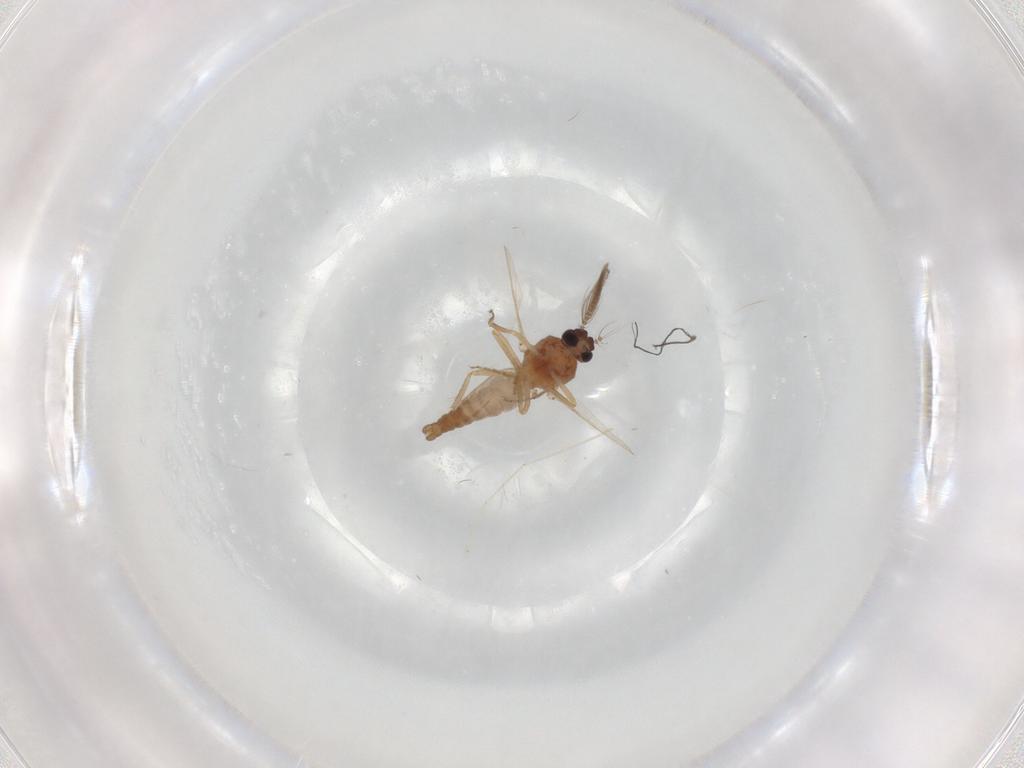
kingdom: Animalia
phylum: Arthropoda
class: Insecta
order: Diptera
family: Ceratopogonidae
